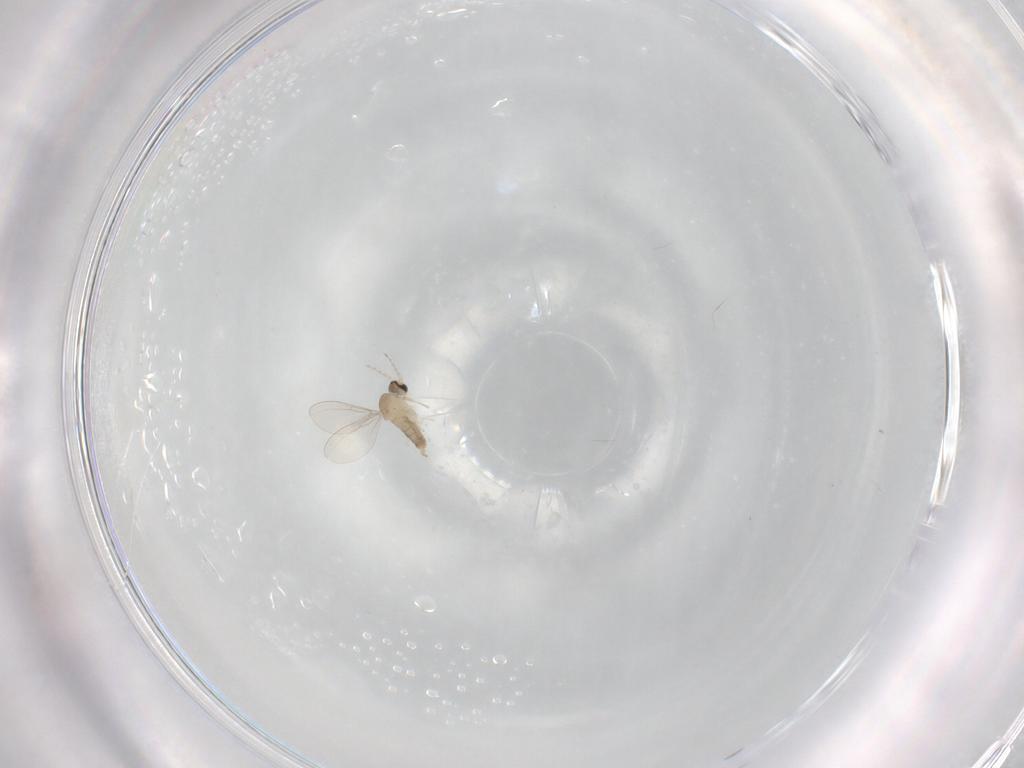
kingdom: Animalia
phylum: Arthropoda
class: Insecta
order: Diptera
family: Cecidomyiidae
